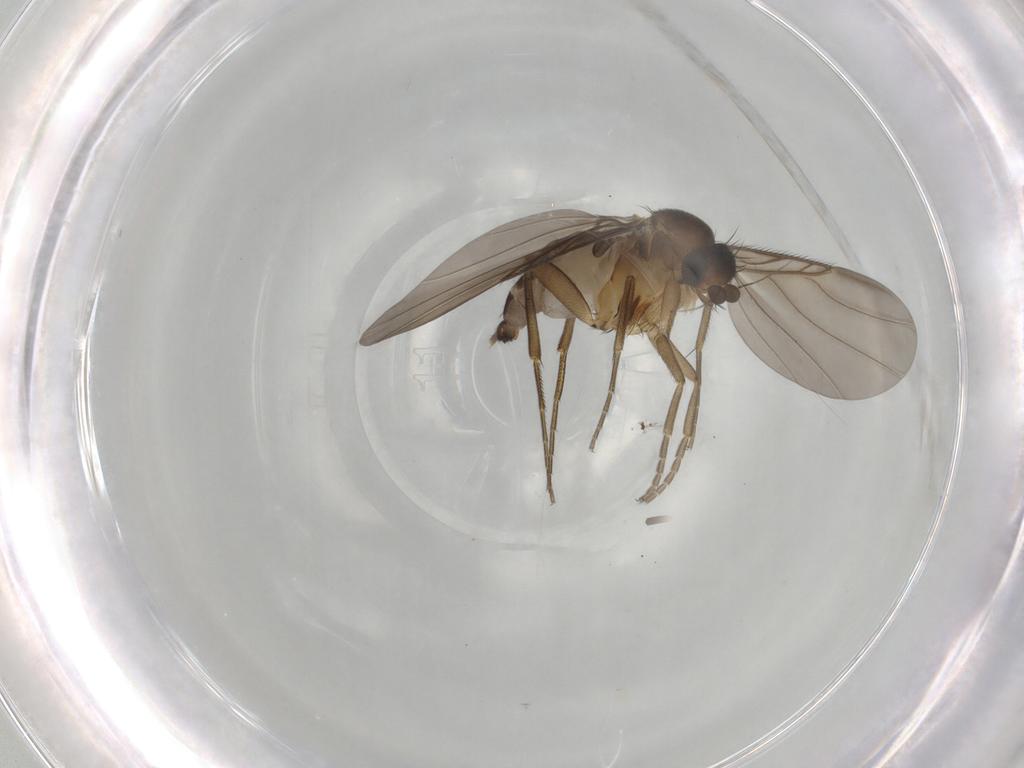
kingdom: Animalia
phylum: Arthropoda
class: Insecta
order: Diptera
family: Phoridae
